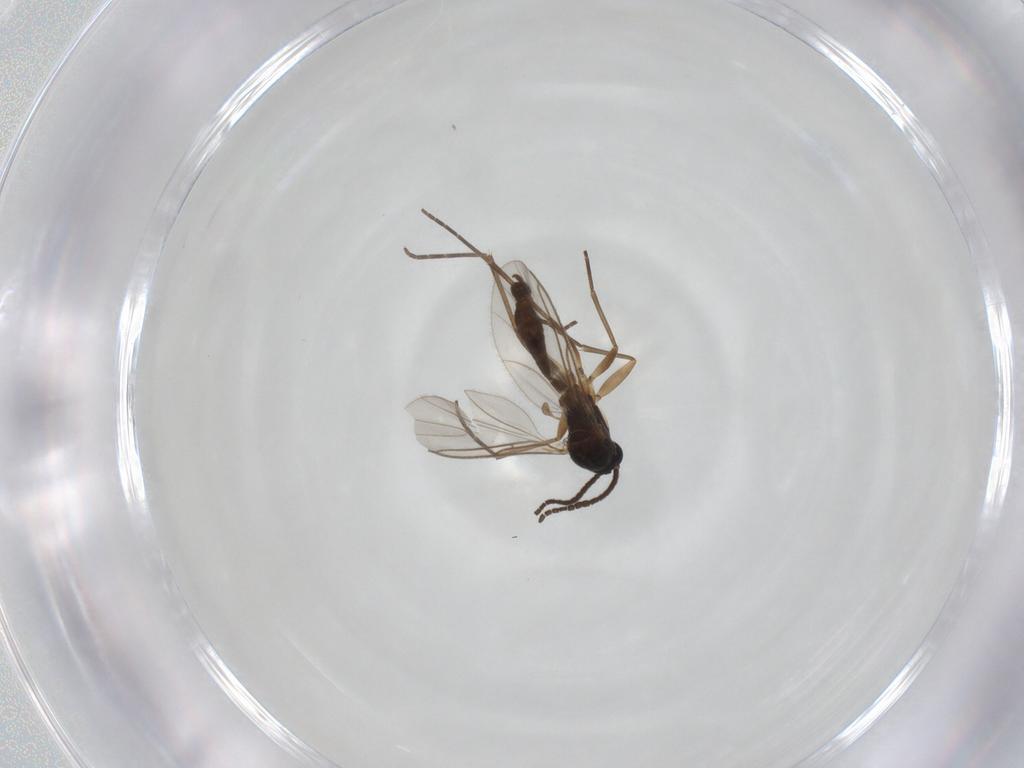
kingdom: Animalia
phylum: Arthropoda
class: Insecta
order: Diptera
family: Sciaridae
